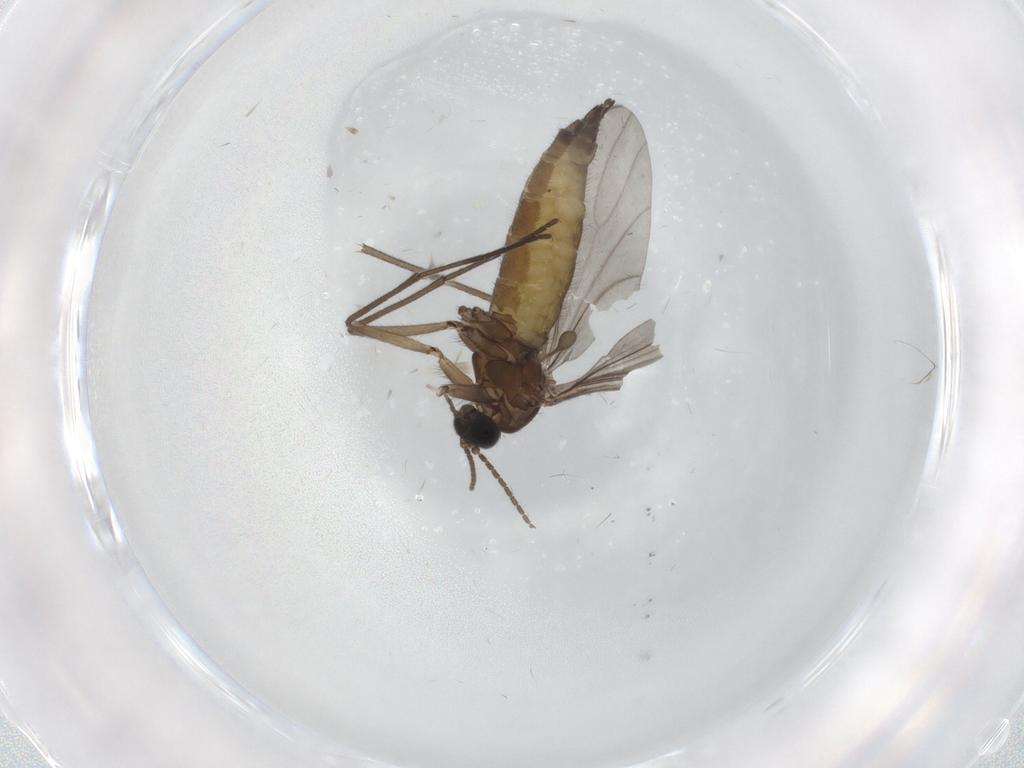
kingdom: Animalia
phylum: Arthropoda
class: Insecta
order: Diptera
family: Sciaridae
